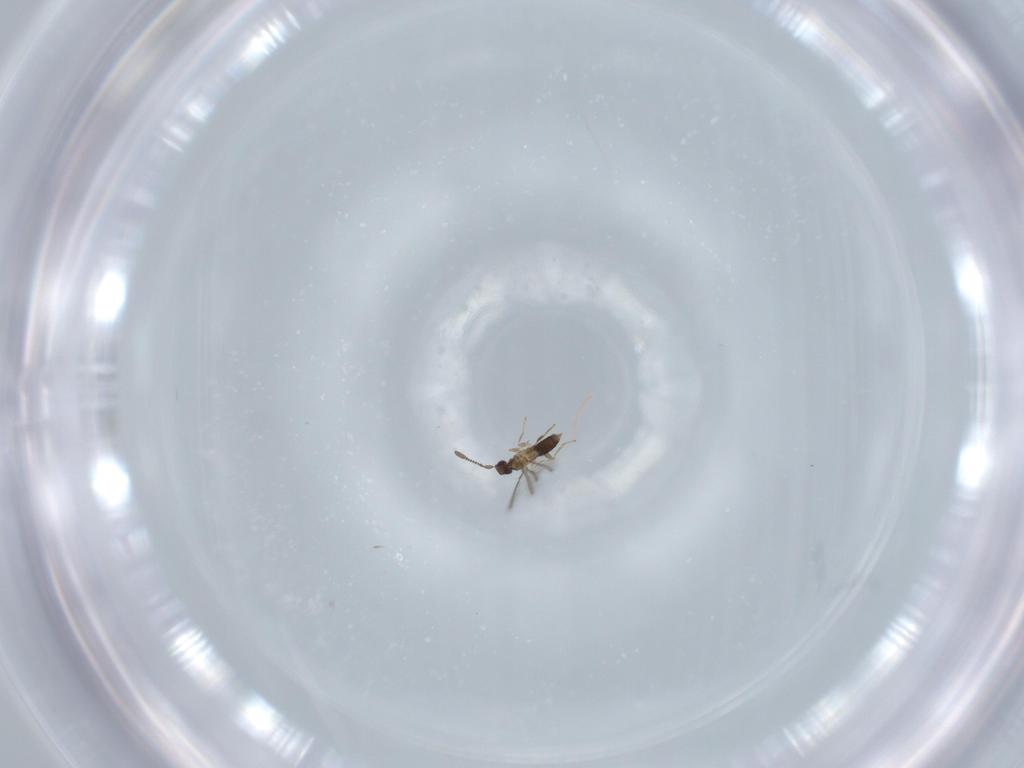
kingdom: Animalia
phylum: Arthropoda
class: Insecta
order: Hymenoptera
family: Mymaridae
